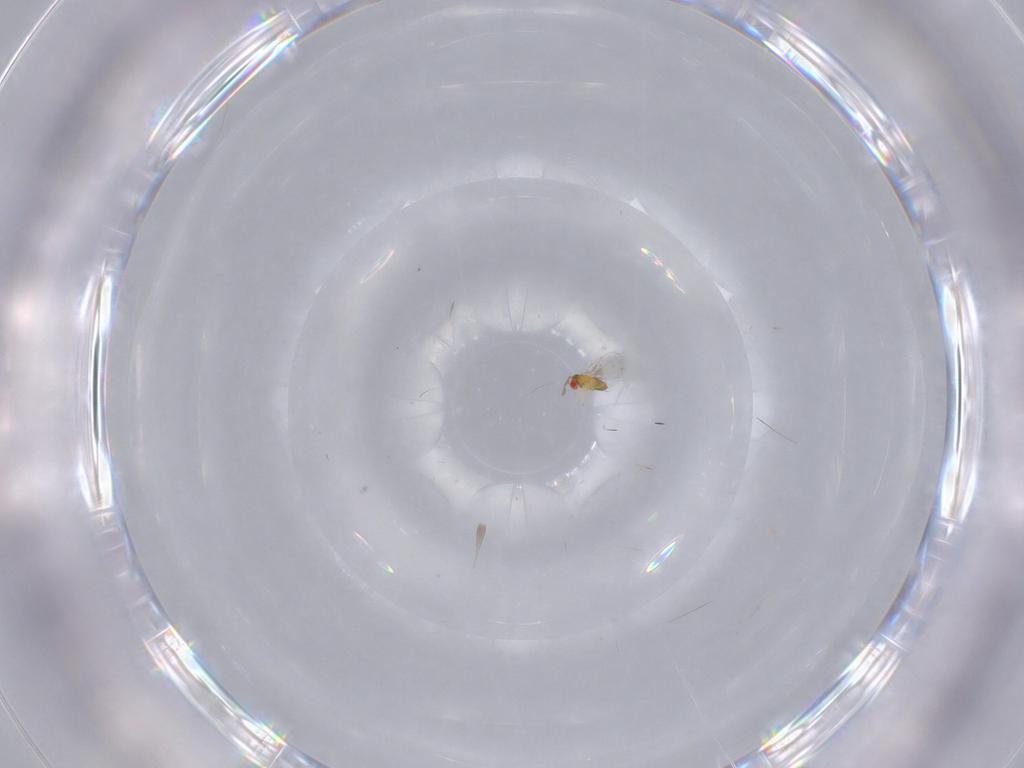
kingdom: Animalia
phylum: Arthropoda
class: Insecta
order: Hymenoptera
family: Trichogrammatidae
